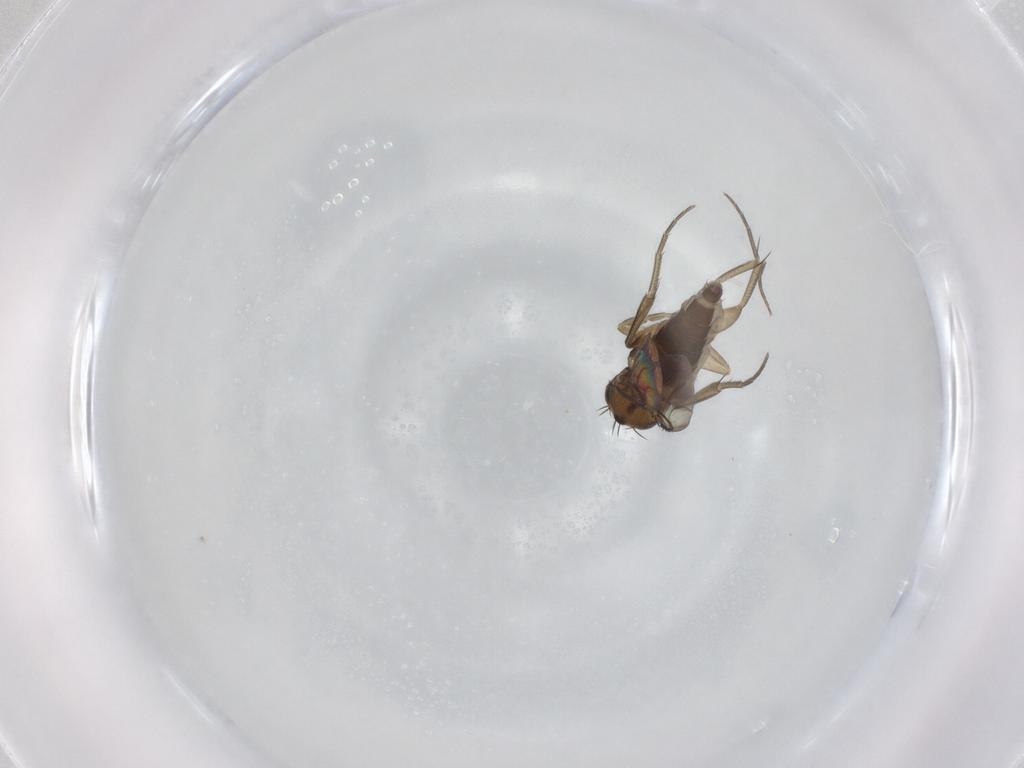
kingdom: Animalia
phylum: Arthropoda
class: Insecta
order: Diptera
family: Phoridae
